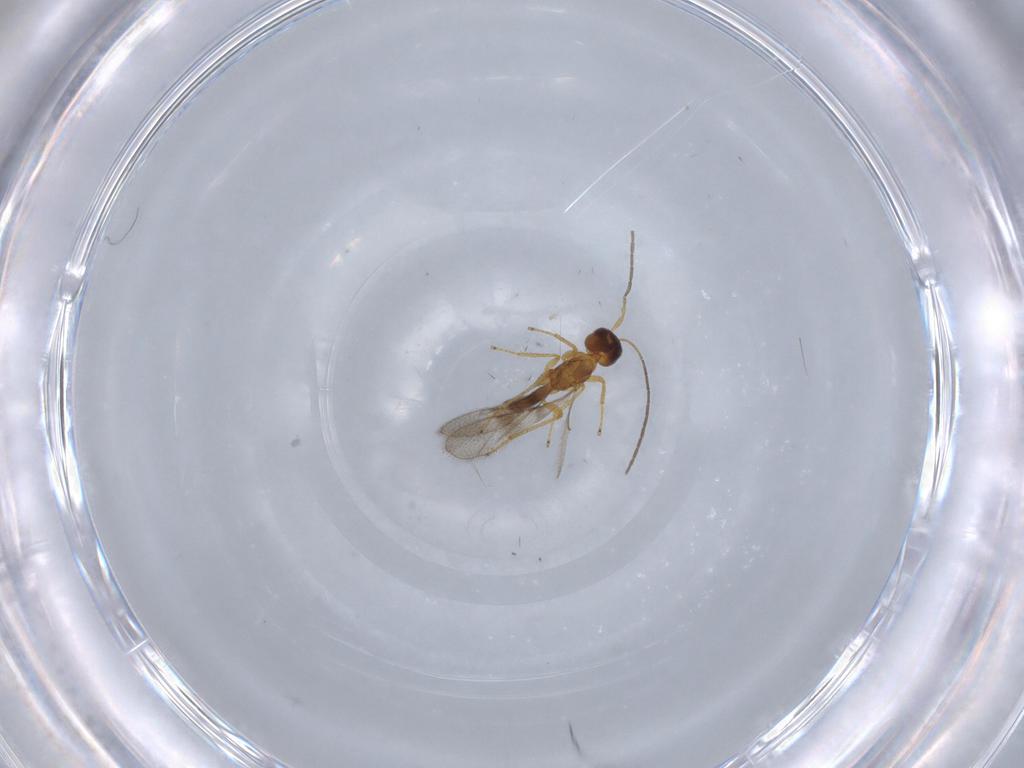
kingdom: Animalia
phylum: Arthropoda
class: Insecta
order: Hymenoptera
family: Mymaridae
